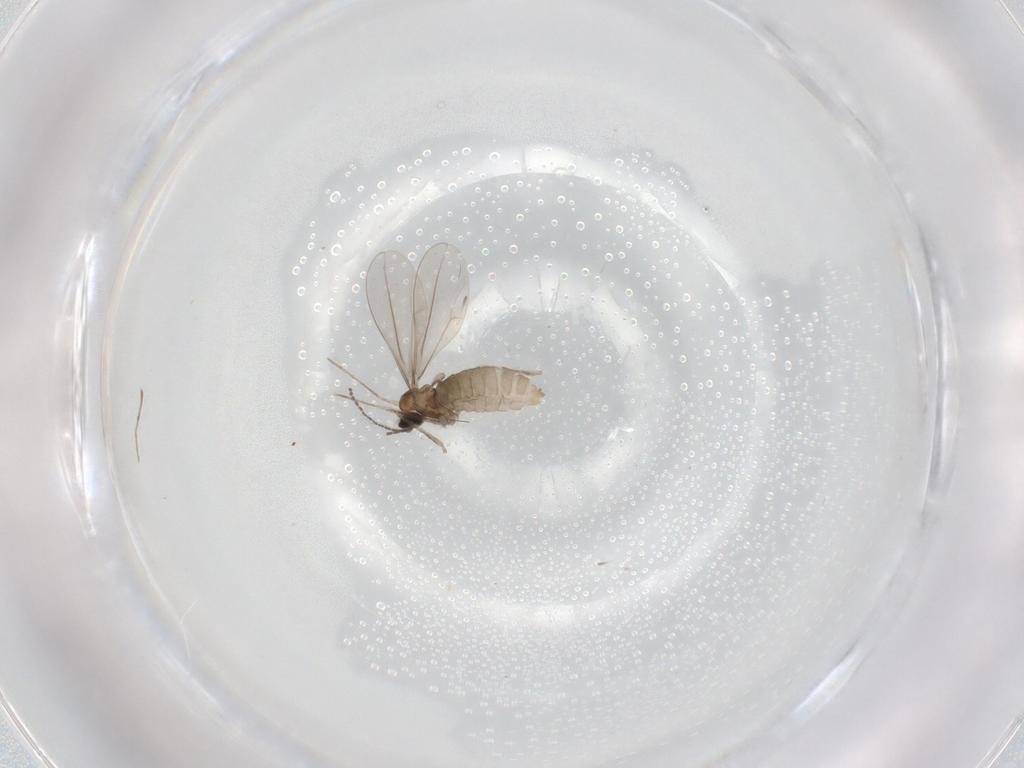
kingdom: Animalia
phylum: Arthropoda
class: Insecta
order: Diptera
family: Cecidomyiidae
